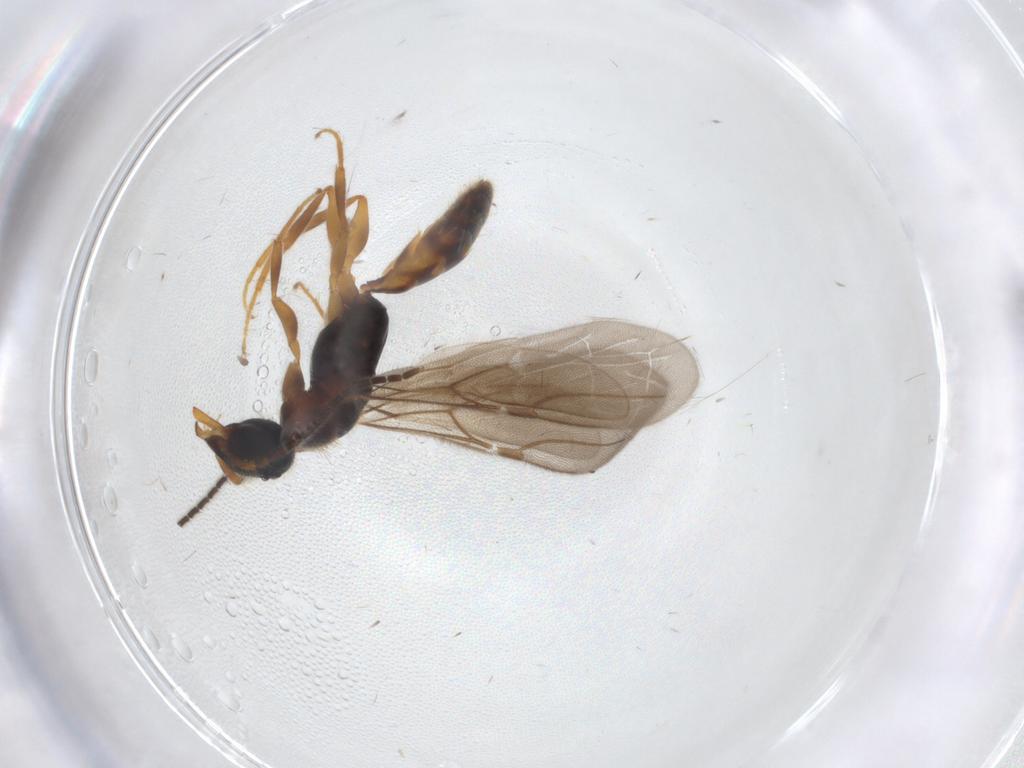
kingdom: Animalia
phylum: Arthropoda
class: Insecta
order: Hymenoptera
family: Bethylidae
